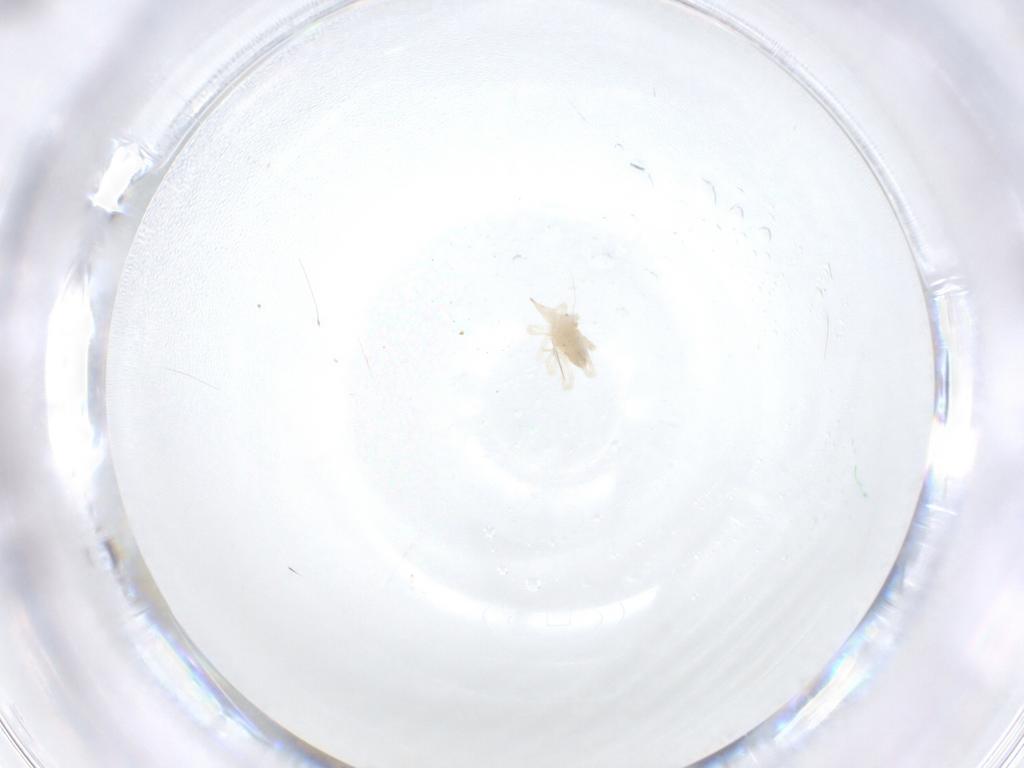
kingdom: Animalia
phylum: Arthropoda
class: Arachnida
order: Trombidiformes
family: Bdellidae
